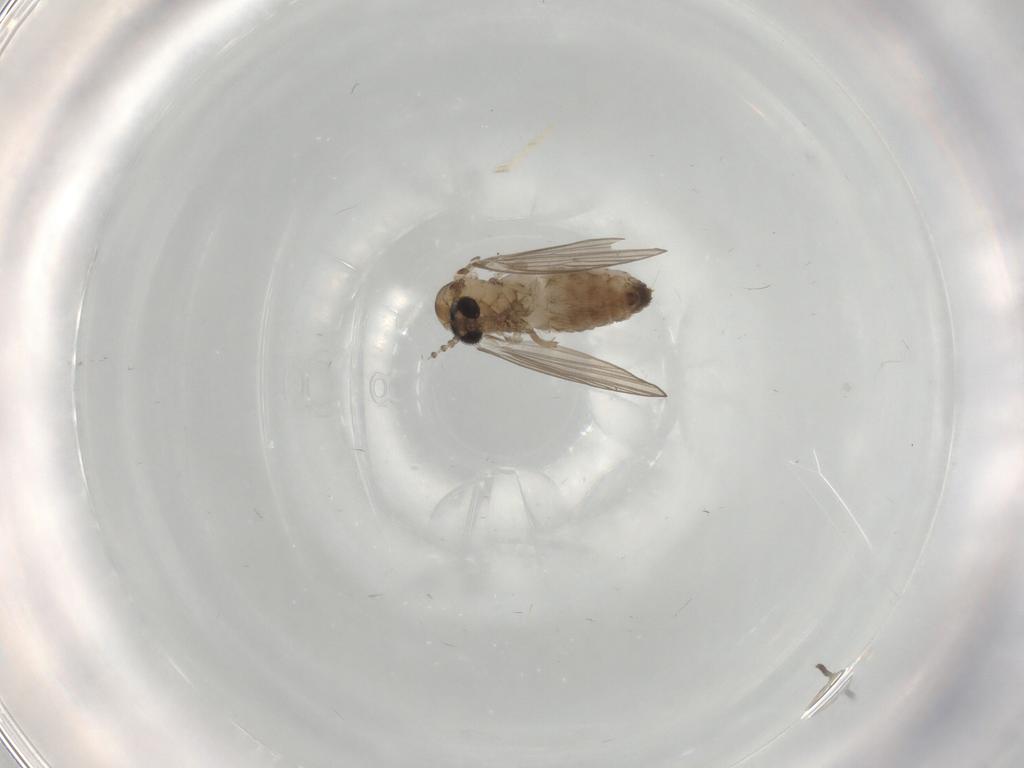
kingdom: Animalia
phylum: Arthropoda
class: Insecta
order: Diptera
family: Psychodidae
